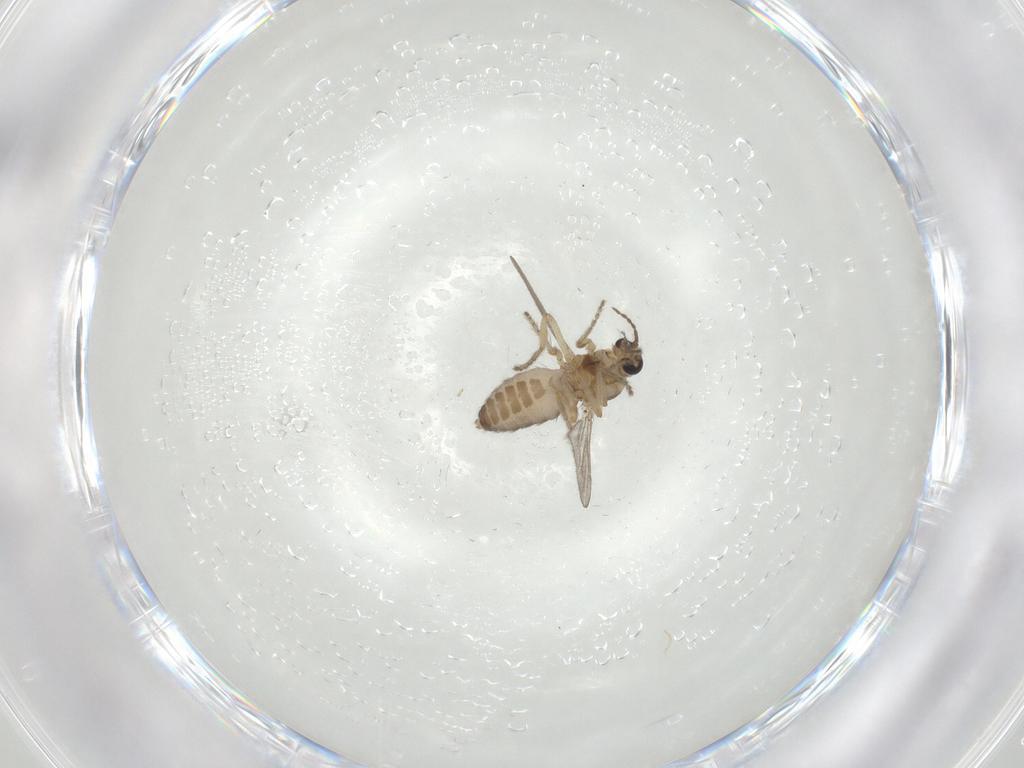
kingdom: Animalia
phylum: Arthropoda
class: Insecta
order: Diptera
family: Ceratopogonidae
